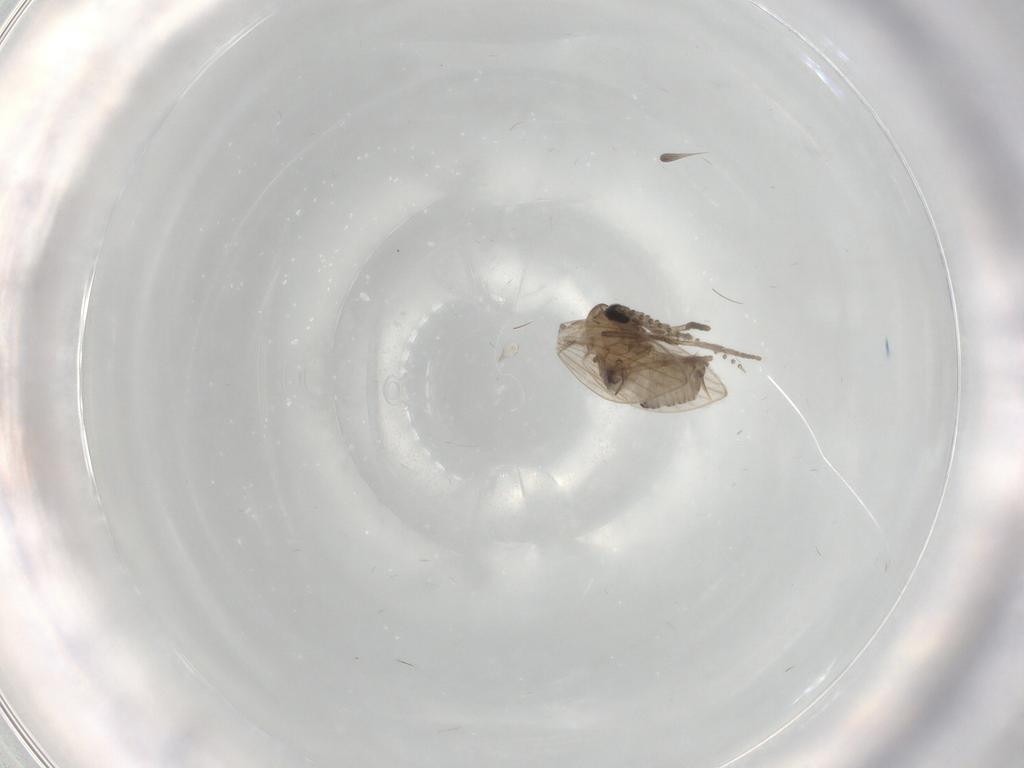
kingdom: Animalia
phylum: Arthropoda
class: Insecta
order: Diptera
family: Psychodidae
